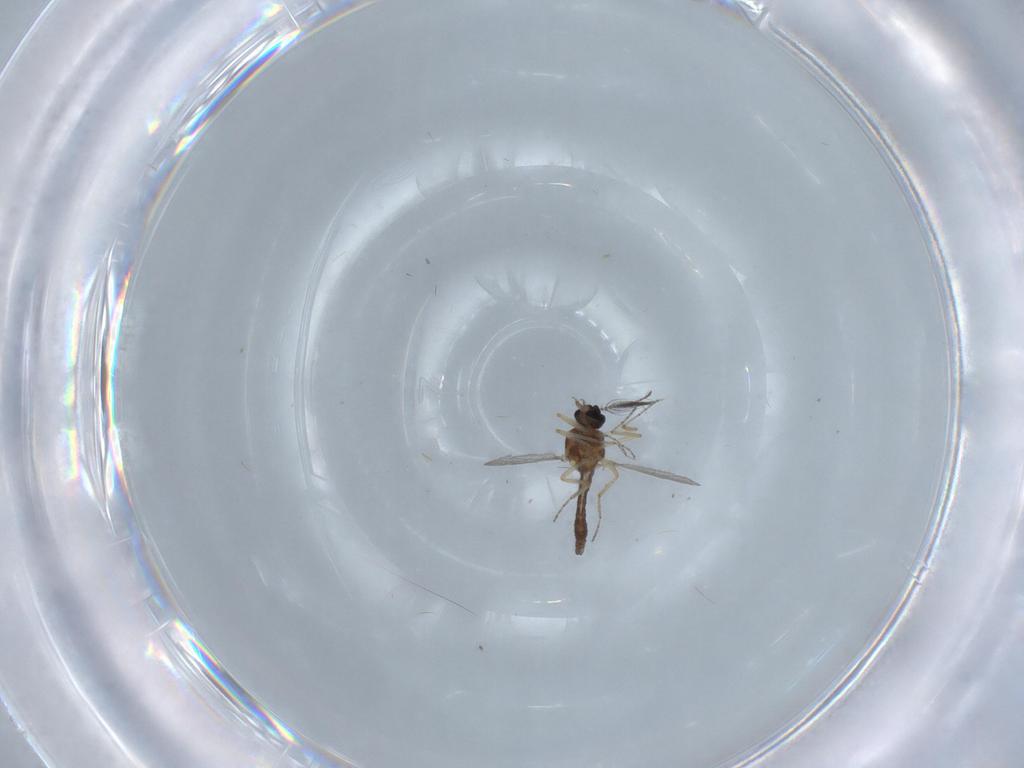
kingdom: Animalia
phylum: Arthropoda
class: Insecta
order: Diptera
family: Ceratopogonidae
